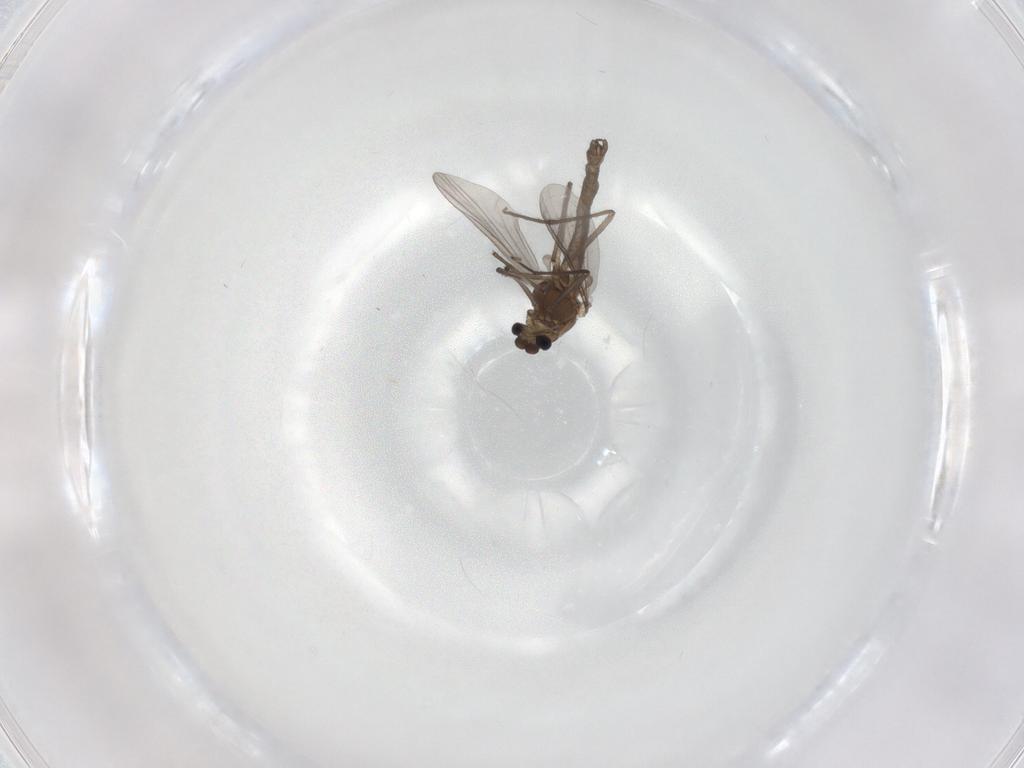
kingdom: Animalia
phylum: Arthropoda
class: Insecta
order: Diptera
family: Chironomidae
